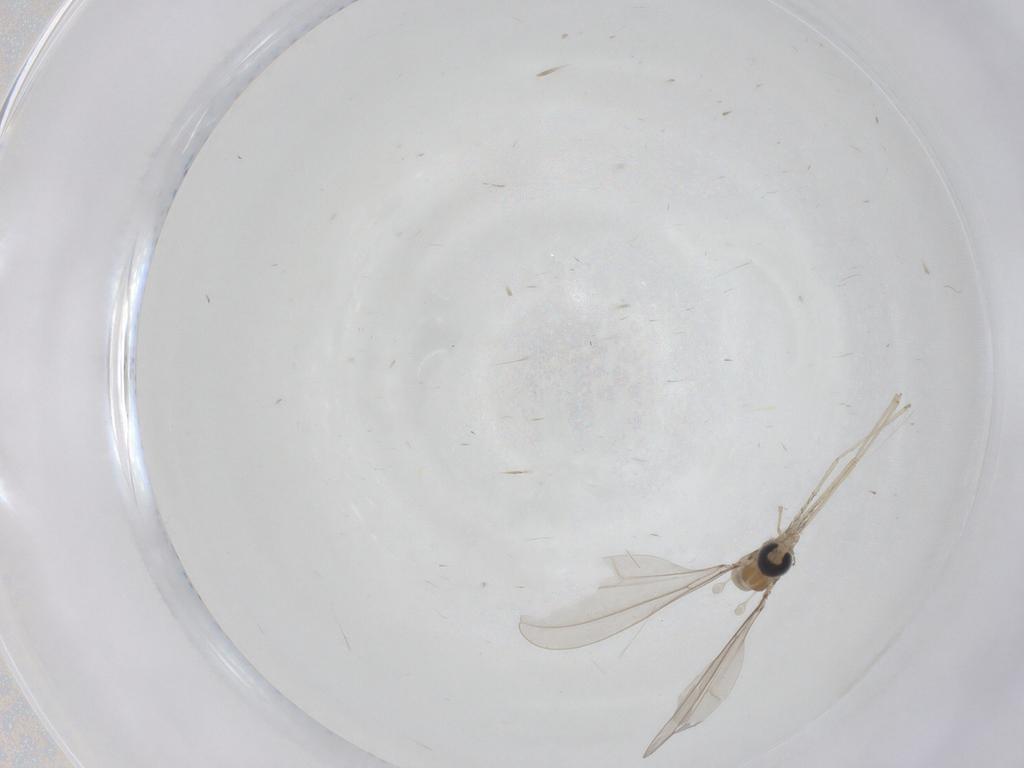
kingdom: Animalia
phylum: Arthropoda
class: Insecta
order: Diptera
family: Cecidomyiidae
